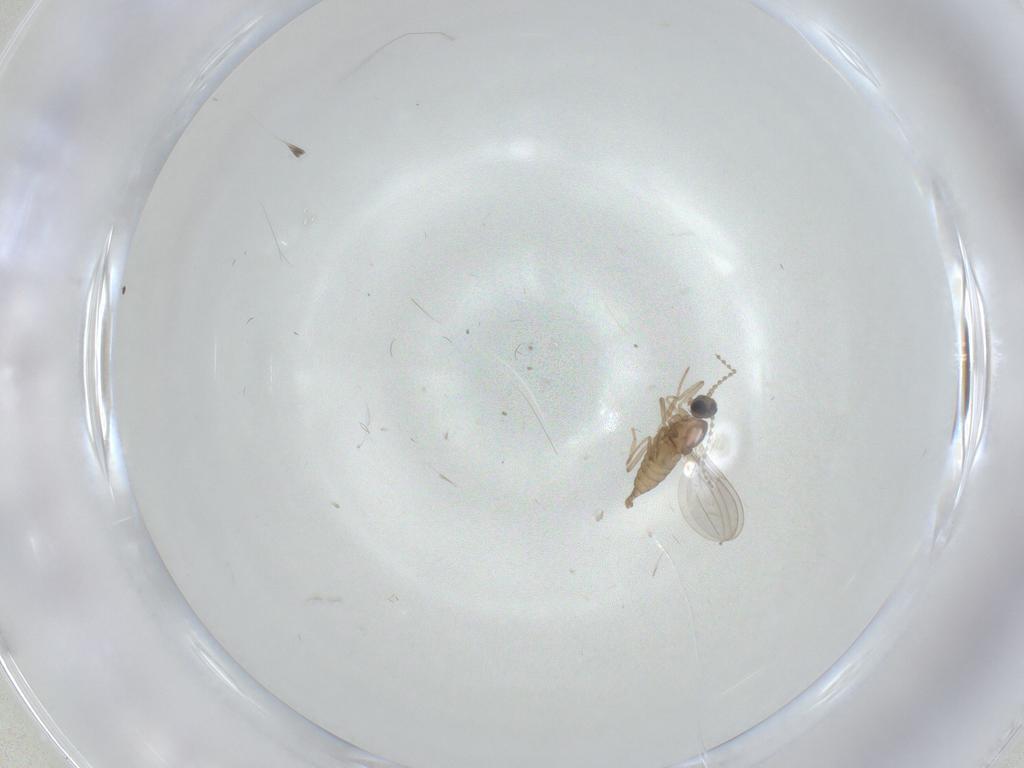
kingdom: Animalia
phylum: Arthropoda
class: Insecta
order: Diptera
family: Cecidomyiidae
